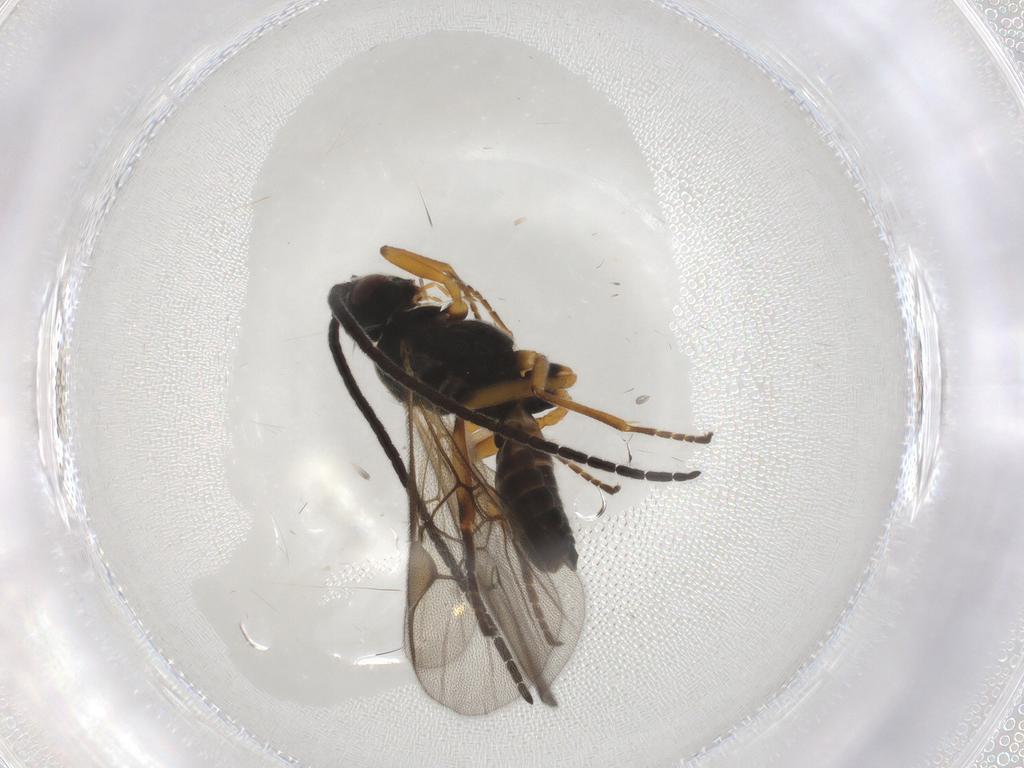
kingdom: Animalia
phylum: Arthropoda
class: Insecta
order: Hymenoptera
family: Braconidae
